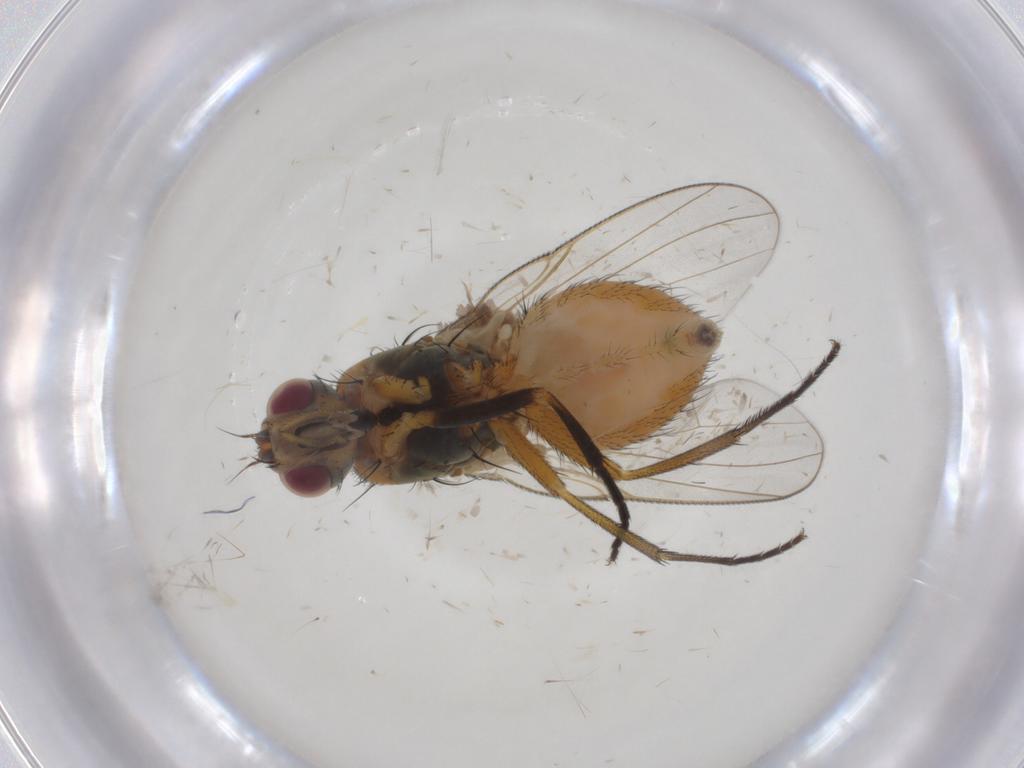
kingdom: Animalia
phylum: Arthropoda
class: Insecta
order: Diptera
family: Muscidae
